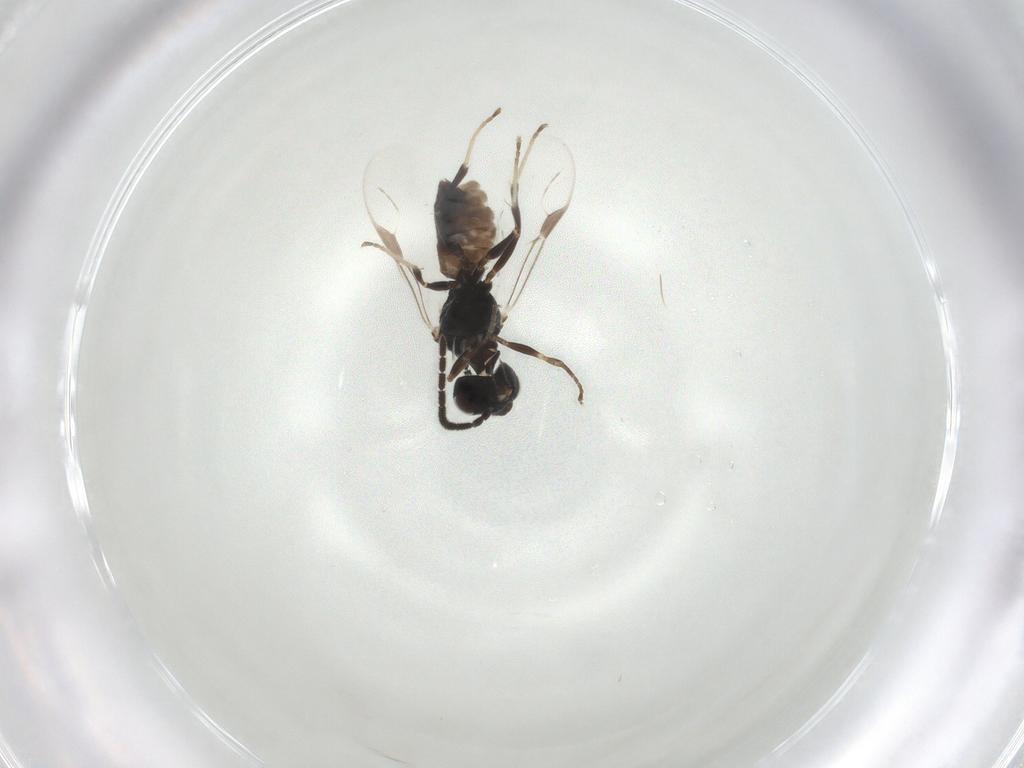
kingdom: Animalia
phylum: Arthropoda
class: Insecta
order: Hymenoptera
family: Dryinidae
